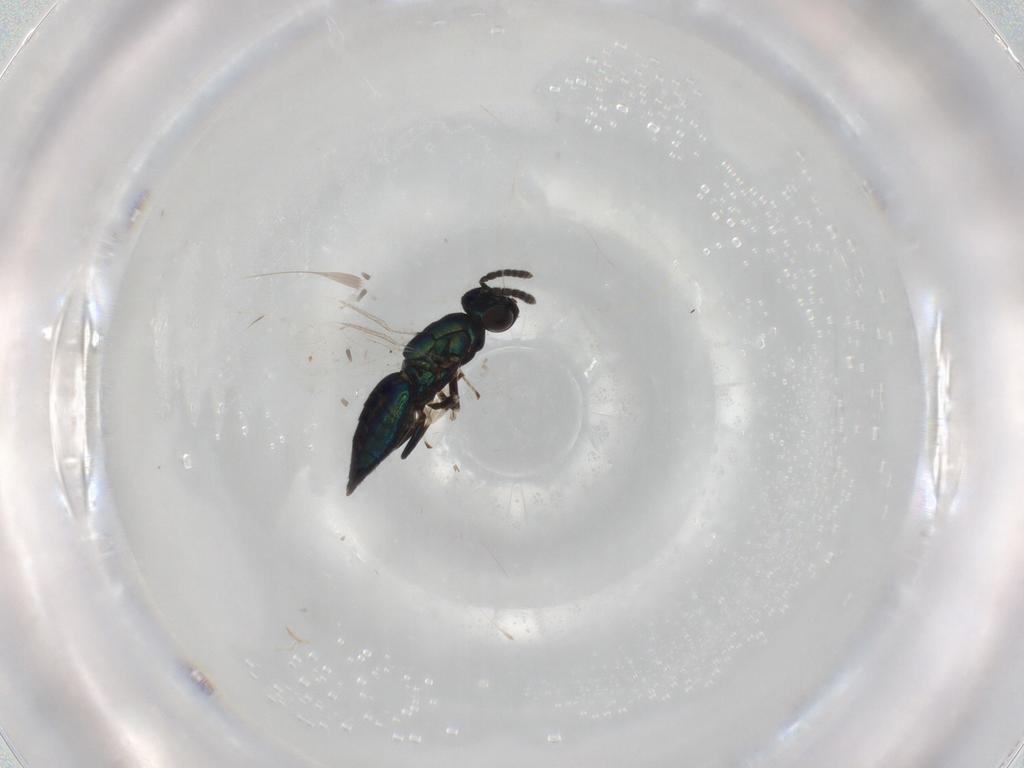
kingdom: Animalia
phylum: Arthropoda
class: Insecta
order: Hymenoptera
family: Eulophidae
